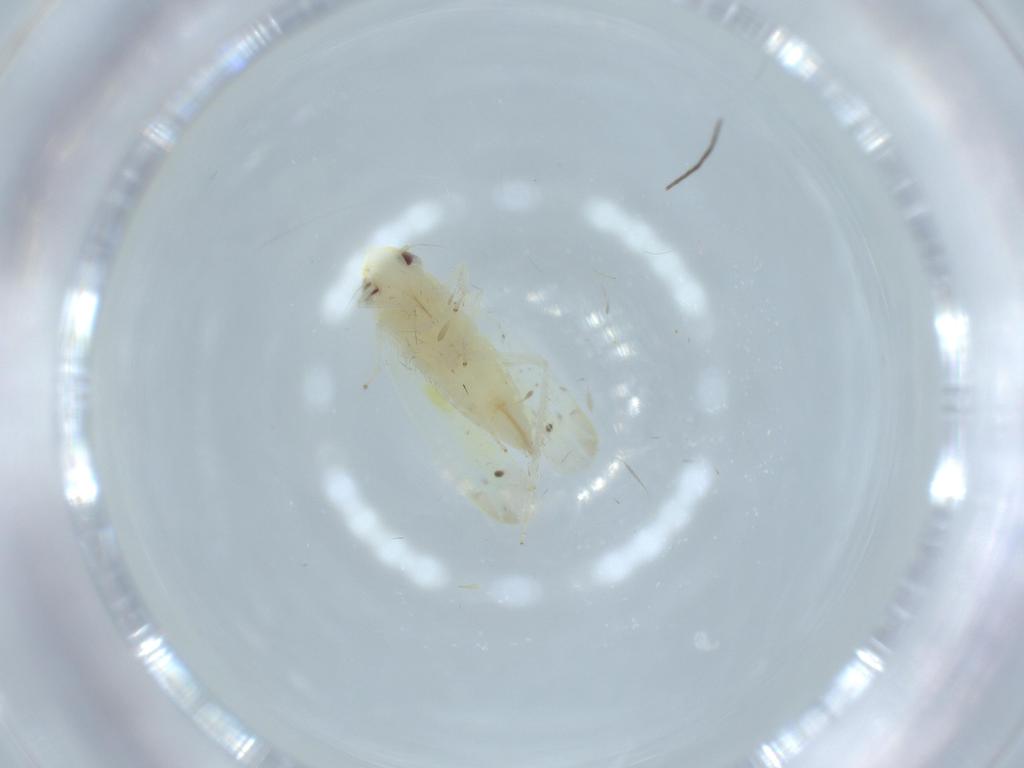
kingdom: Animalia
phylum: Arthropoda
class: Insecta
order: Hemiptera
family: Cicadellidae
